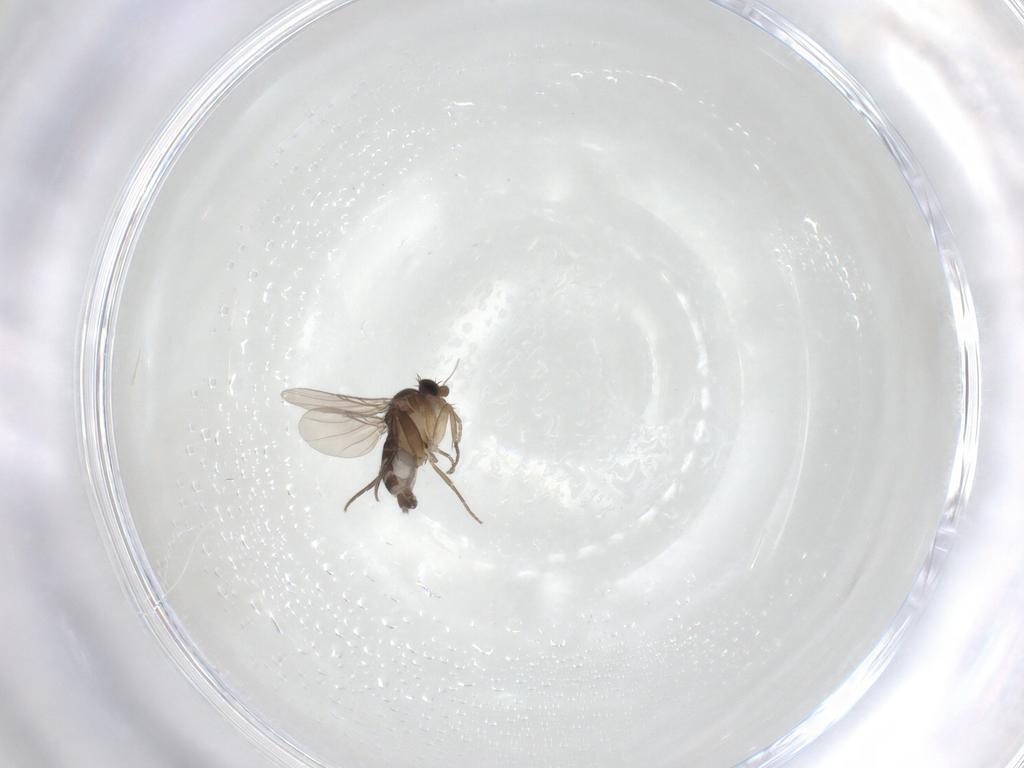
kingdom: Animalia
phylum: Arthropoda
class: Insecta
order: Diptera
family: Phoridae
